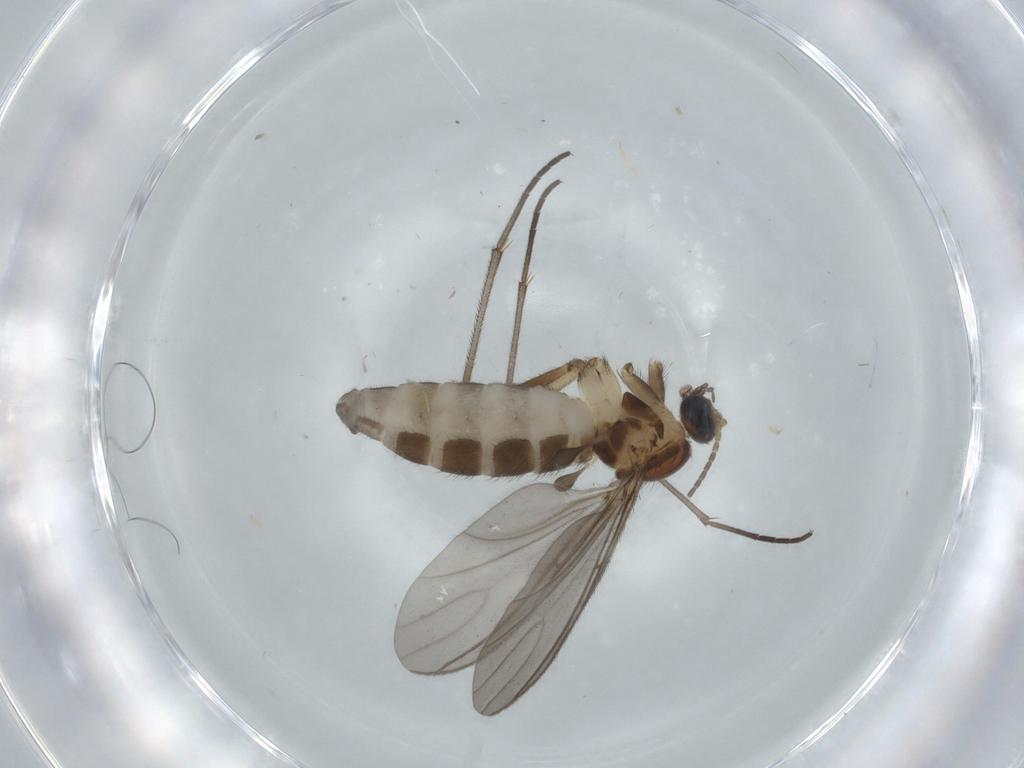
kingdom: Animalia
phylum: Arthropoda
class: Insecta
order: Diptera
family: Sciaridae
